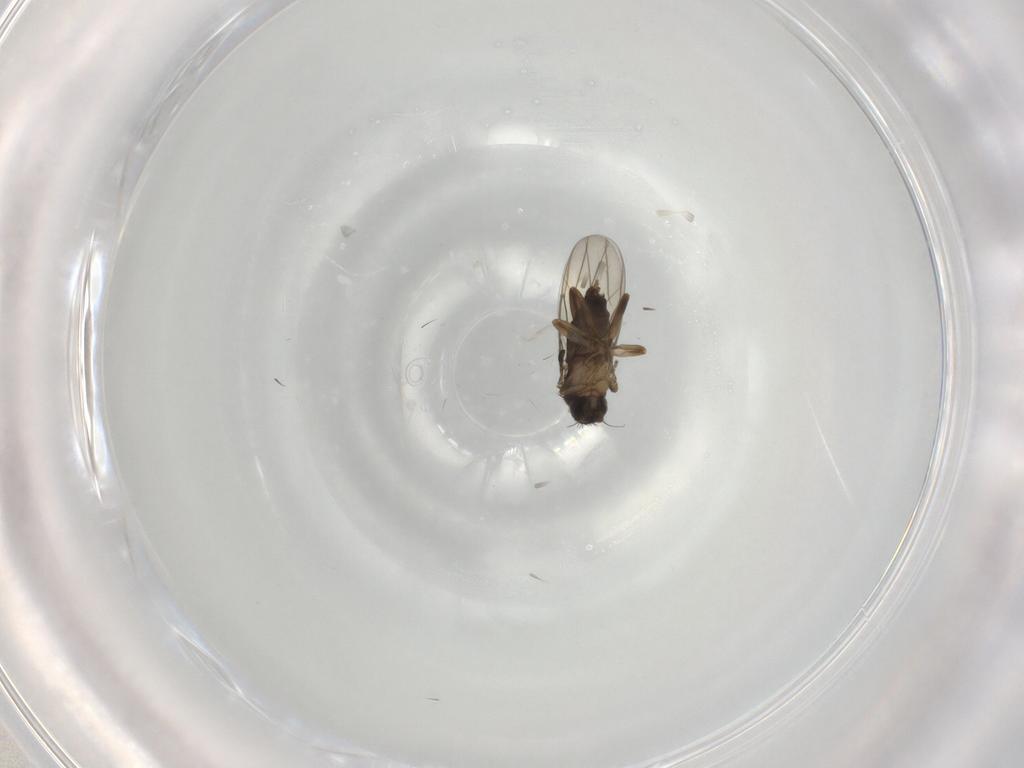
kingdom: Animalia
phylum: Arthropoda
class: Insecta
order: Diptera
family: Phoridae
